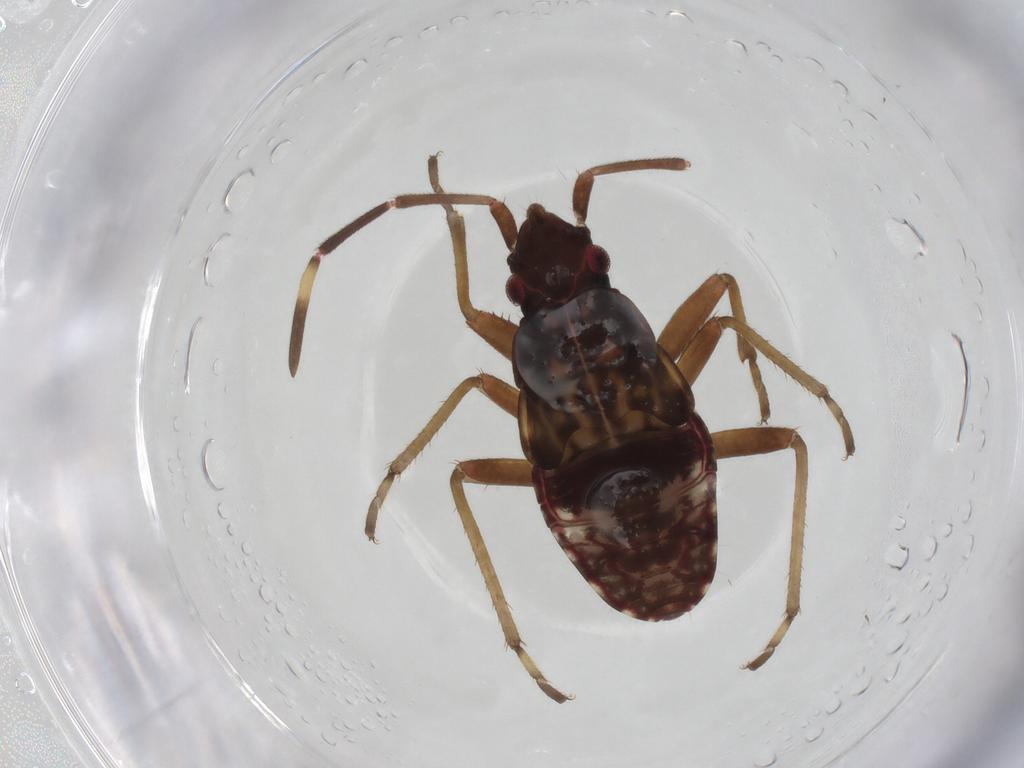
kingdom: Animalia
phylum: Arthropoda
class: Insecta
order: Hemiptera
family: Rhyparochromidae
